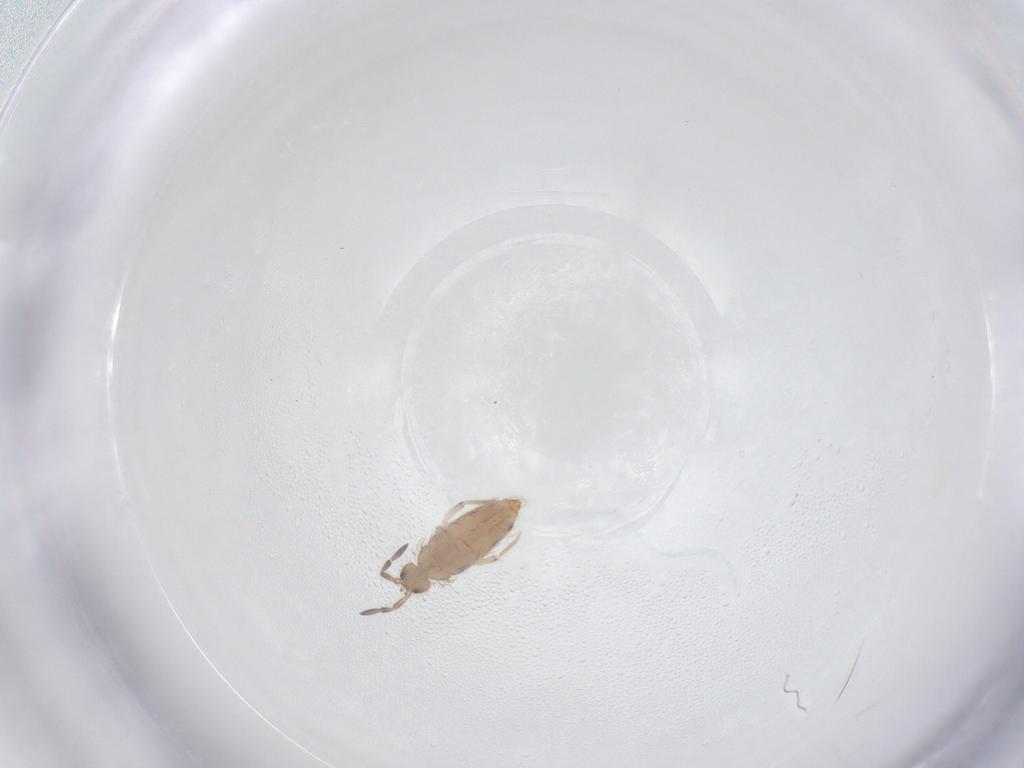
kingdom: Animalia
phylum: Arthropoda
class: Collembola
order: Entomobryomorpha
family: Entomobryidae
